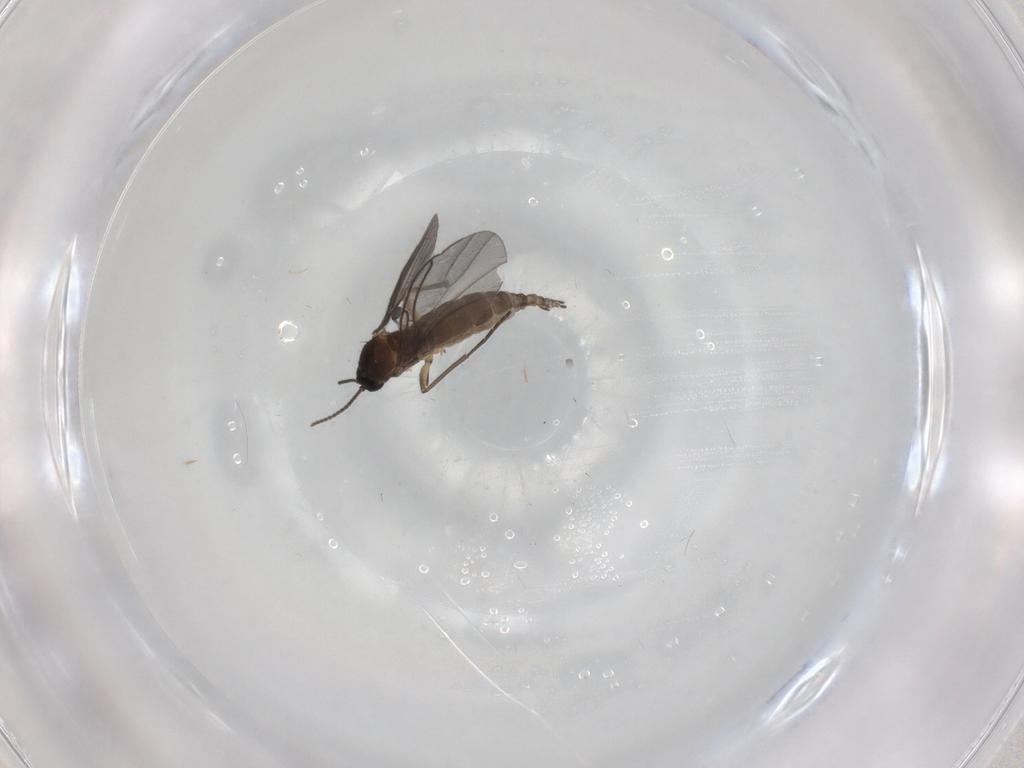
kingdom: Animalia
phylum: Arthropoda
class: Insecta
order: Diptera
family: Sciaridae
